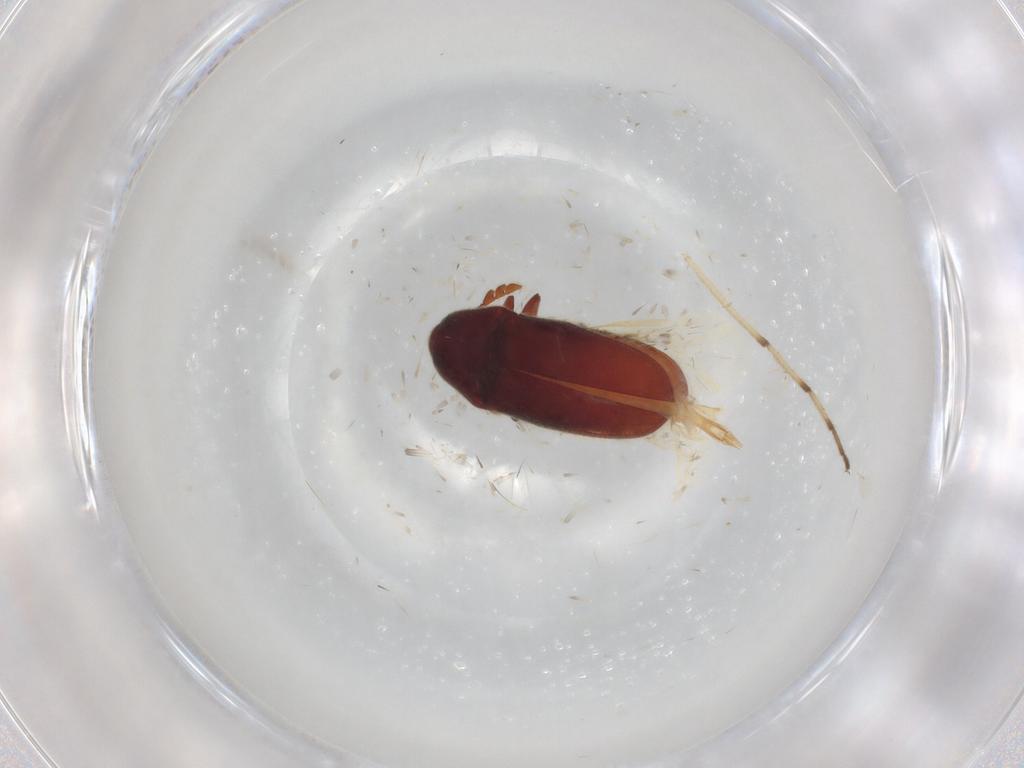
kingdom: Animalia
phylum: Arthropoda
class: Insecta
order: Coleoptera
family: Throscidae
